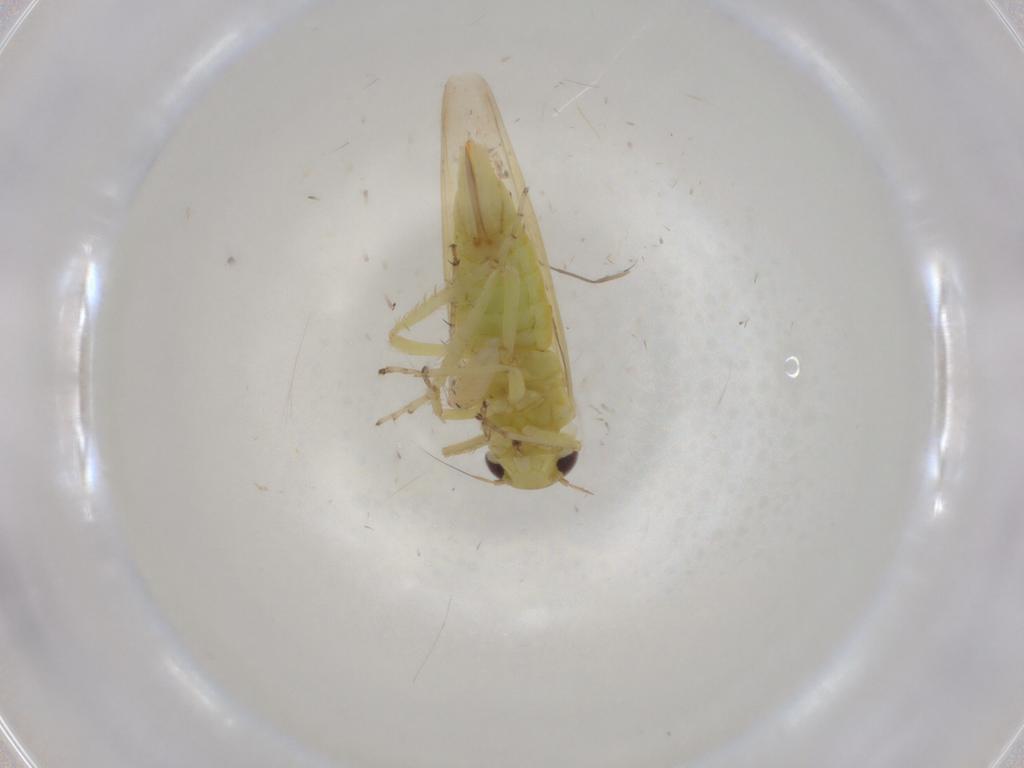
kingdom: Animalia
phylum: Arthropoda
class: Insecta
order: Hemiptera
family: Cicadellidae
